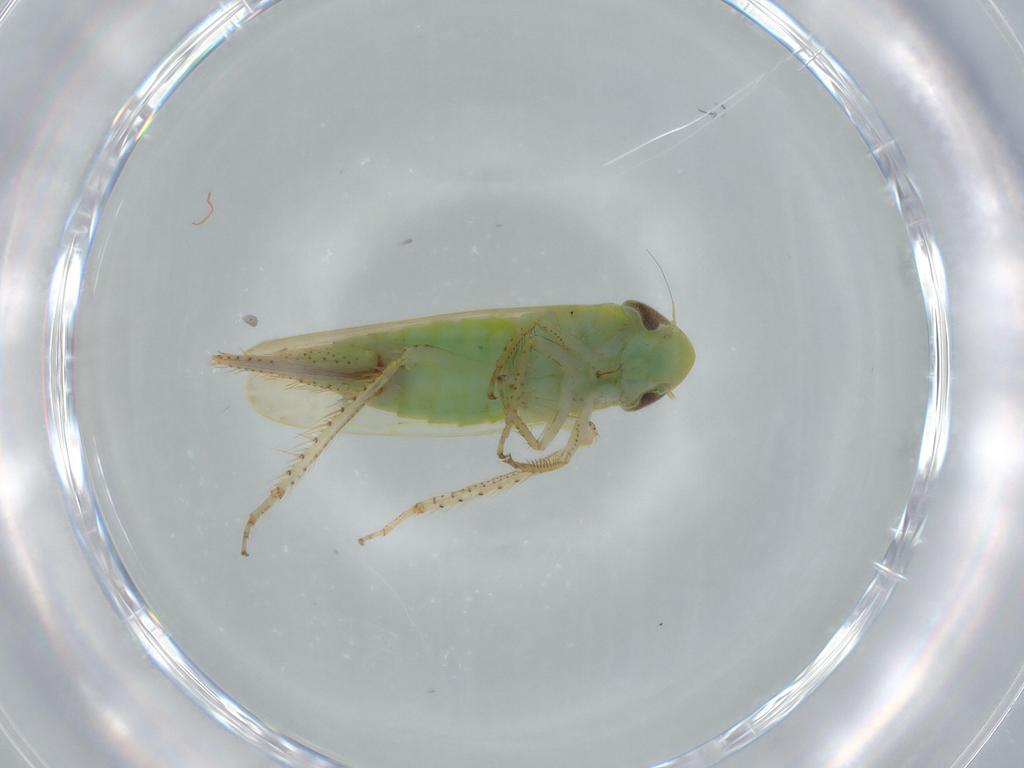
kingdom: Animalia
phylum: Arthropoda
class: Insecta
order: Hemiptera
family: Cicadellidae
